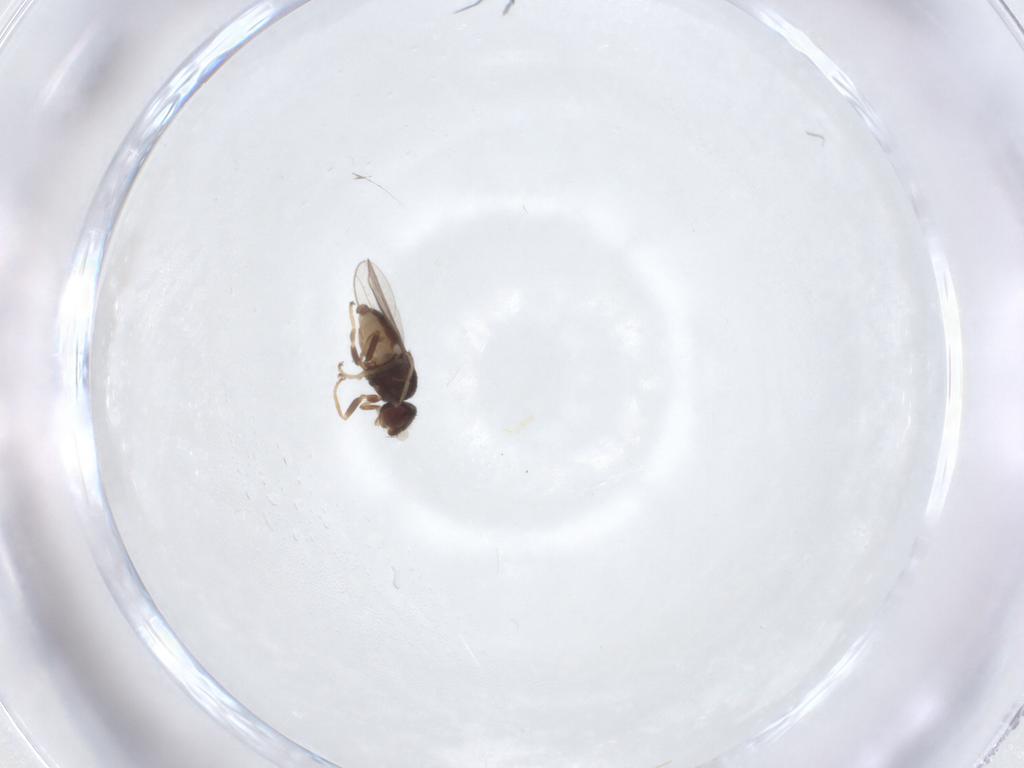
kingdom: Animalia
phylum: Arthropoda
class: Insecta
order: Diptera
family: Chloropidae
